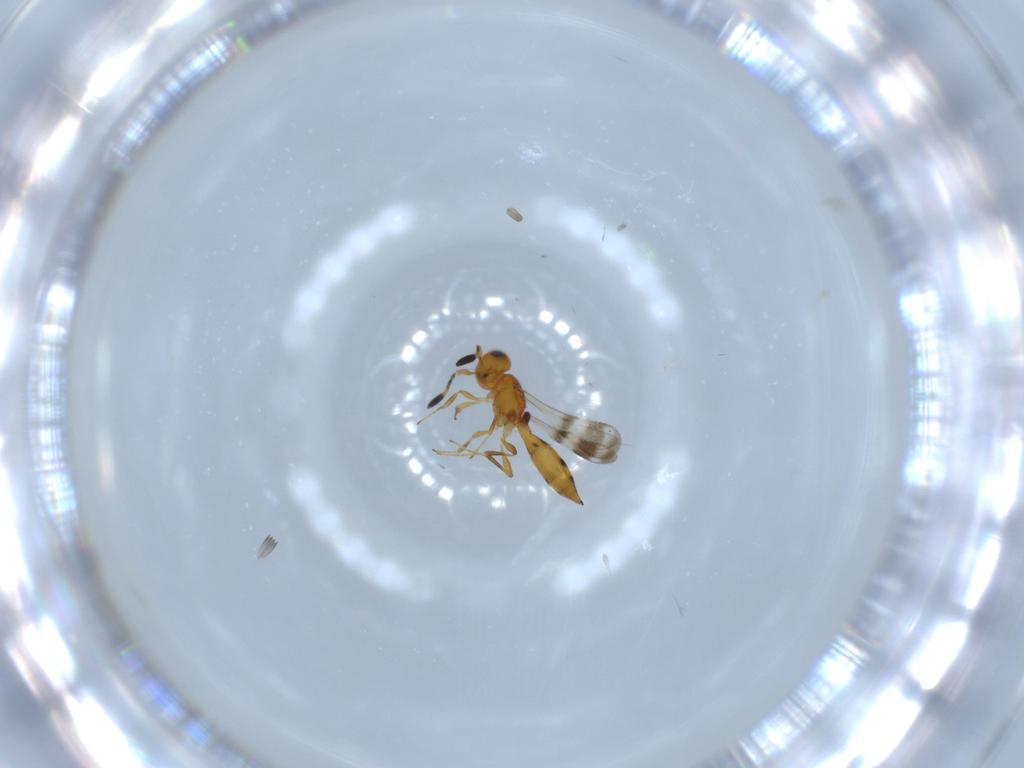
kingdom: Animalia
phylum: Arthropoda
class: Insecta
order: Hymenoptera
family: Scelionidae
